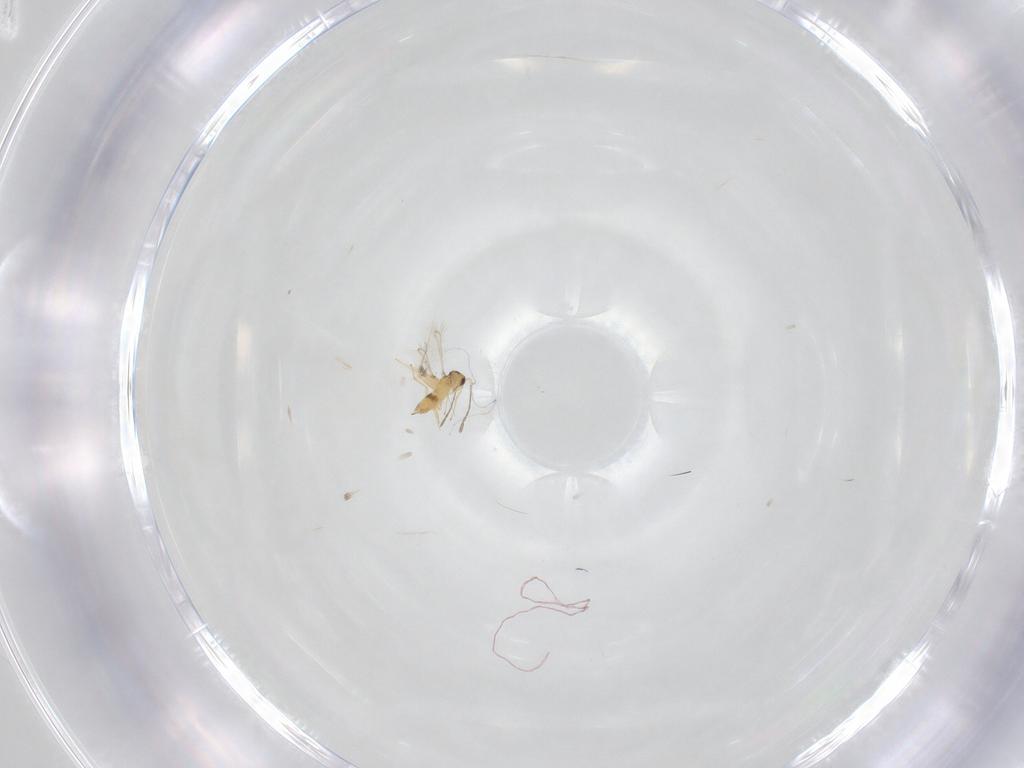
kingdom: Animalia
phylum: Arthropoda
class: Insecta
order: Hymenoptera
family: Mymaridae
